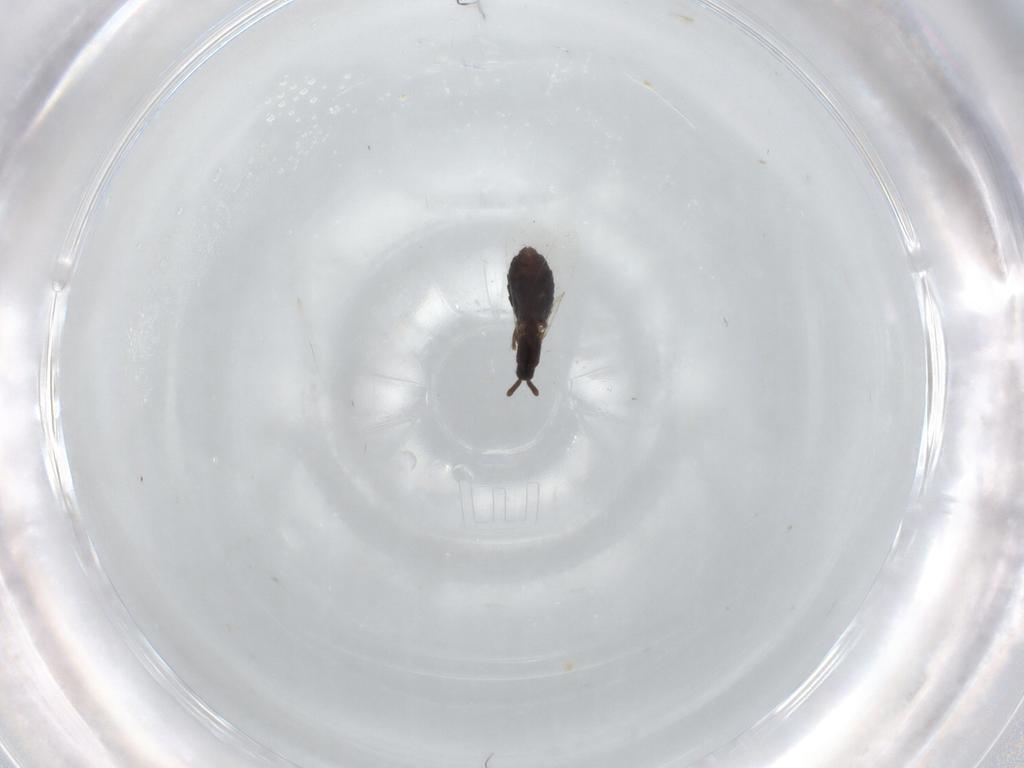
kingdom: Animalia
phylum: Arthropoda
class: Insecta
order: Diptera
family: Scatopsidae
